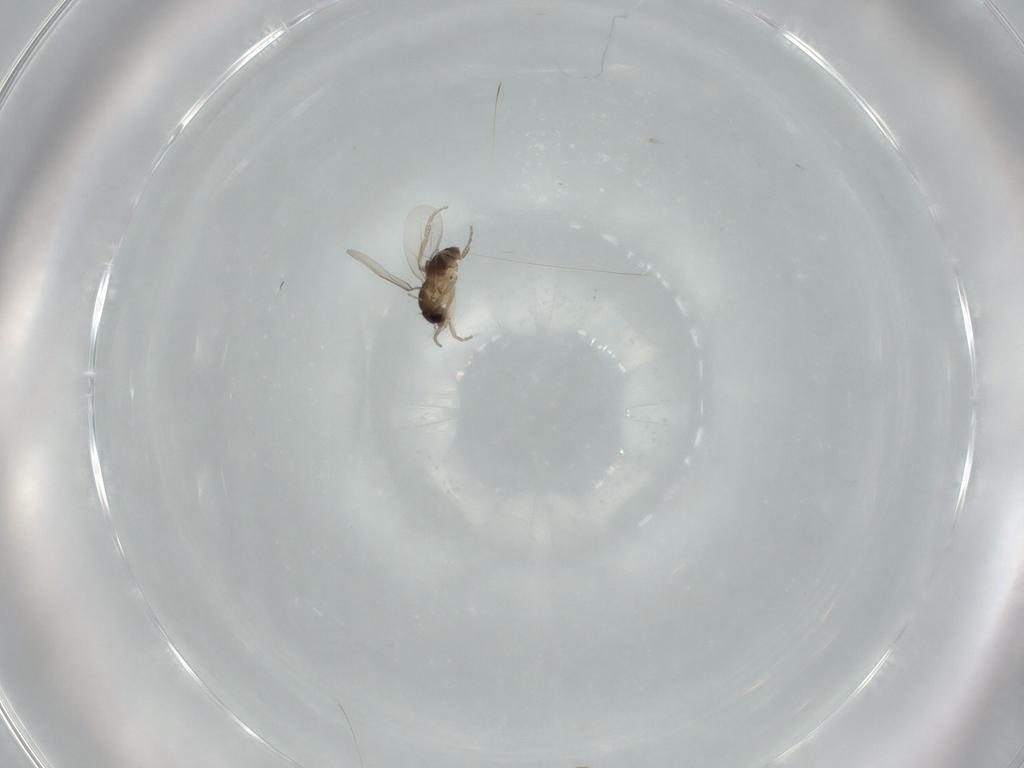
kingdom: Animalia
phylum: Arthropoda
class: Insecta
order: Diptera
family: Phoridae
